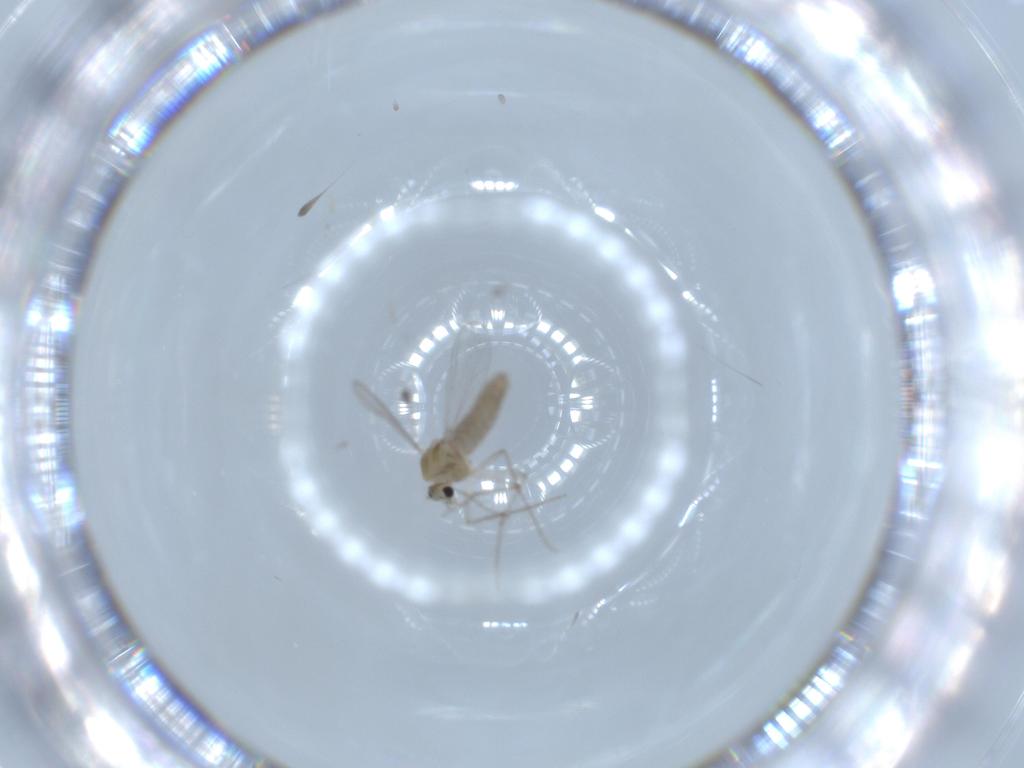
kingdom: Animalia
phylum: Arthropoda
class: Insecta
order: Diptera
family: Chironomidae
